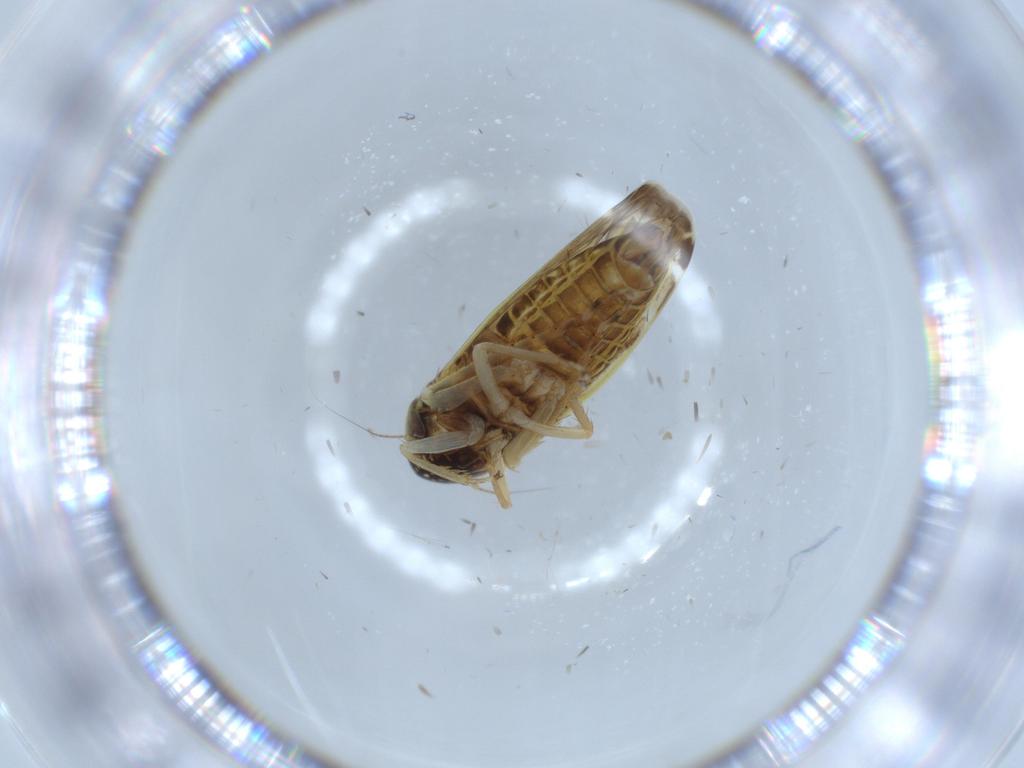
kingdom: Animalia
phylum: Arthropoda
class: Insecta
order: Hemiptera
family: Cicadellidae
